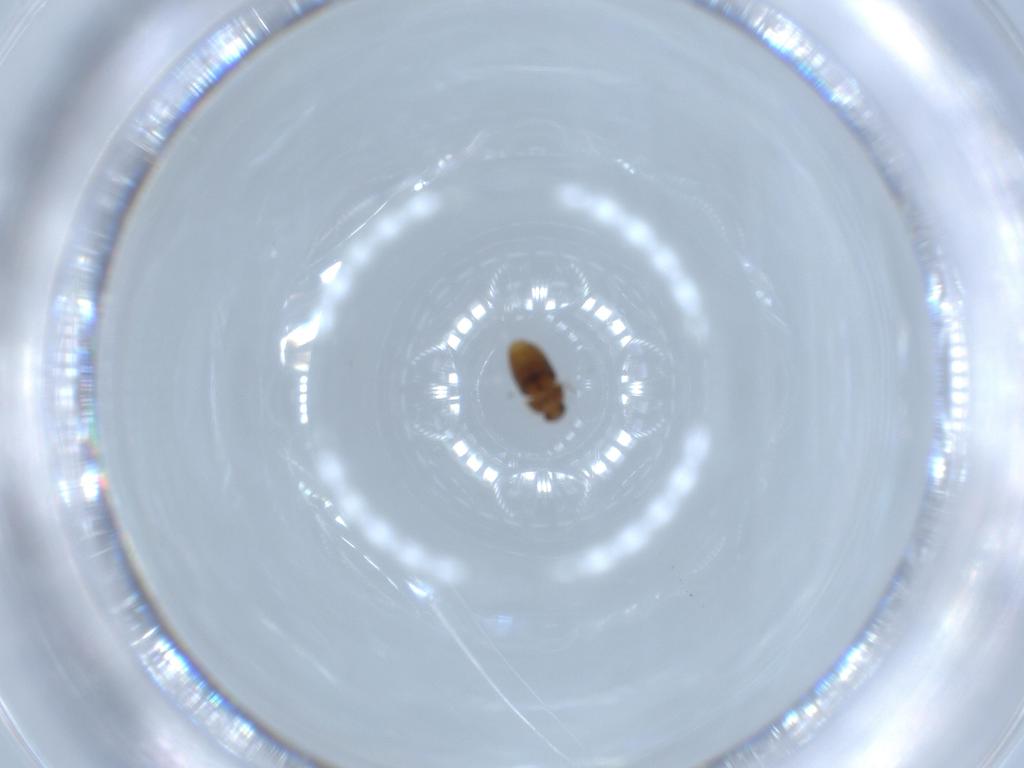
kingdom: Animalia
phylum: Arthropoda
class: Insecta
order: Coleoptera
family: Ptiliidae
